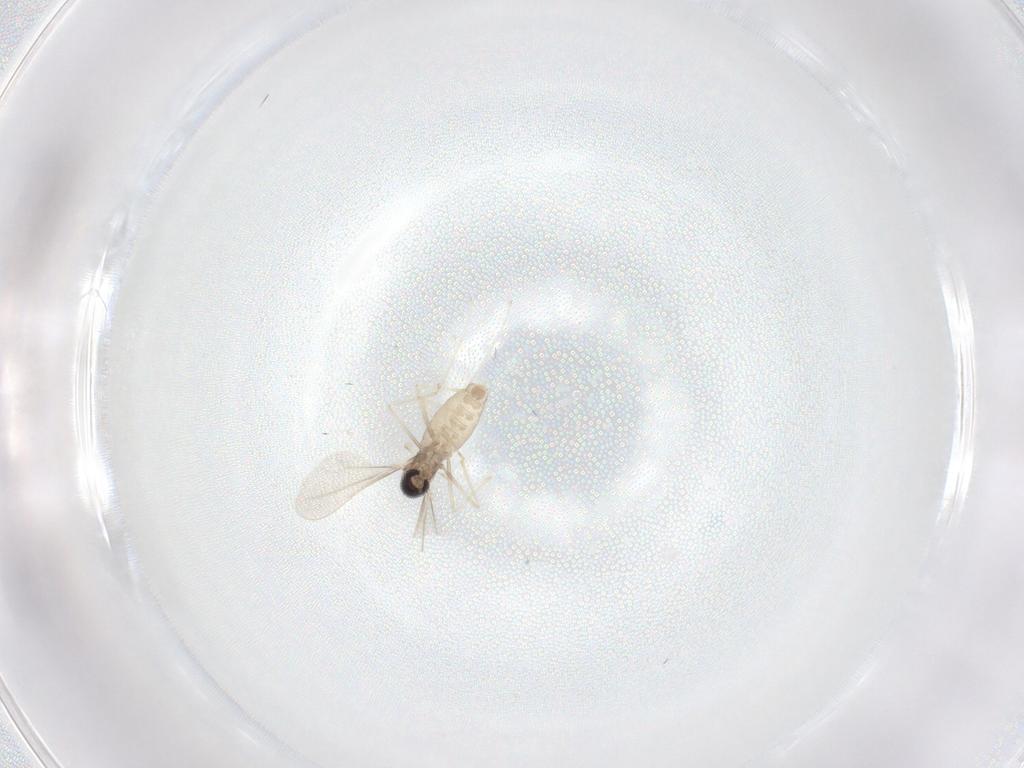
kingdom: Animalia
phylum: Arthropoda
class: Insecta
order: Diptera
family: Cecidomyiidae
